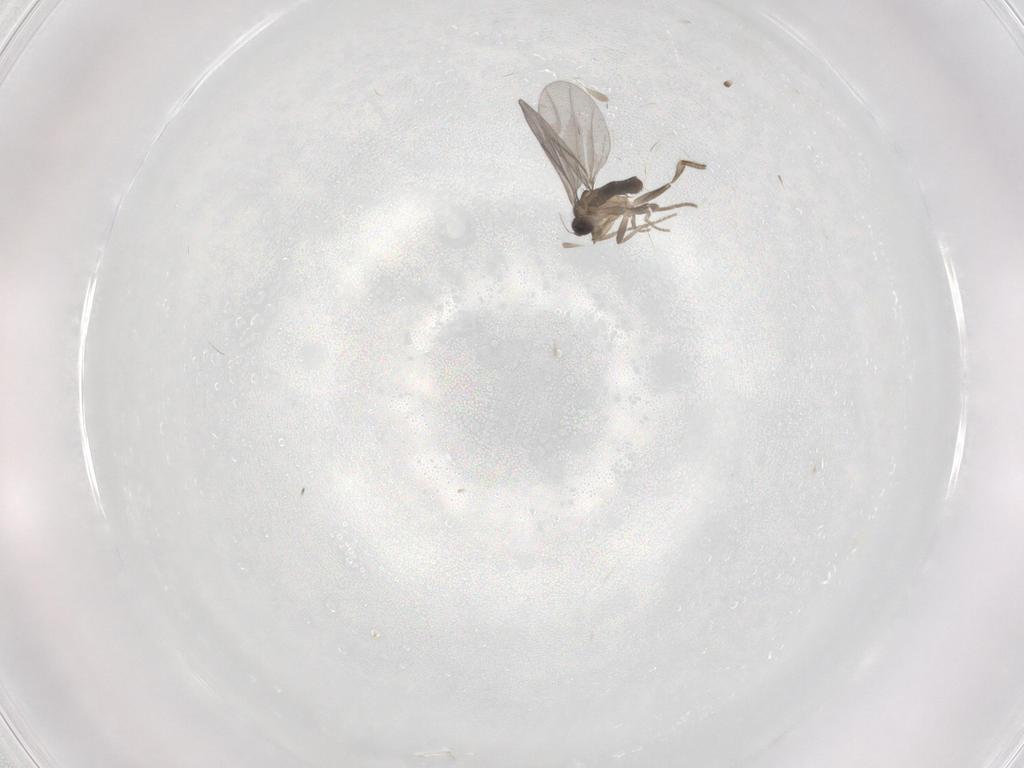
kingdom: Animalia
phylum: Arthropoda
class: Insecta
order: Diptera
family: Cecidomyiidae
